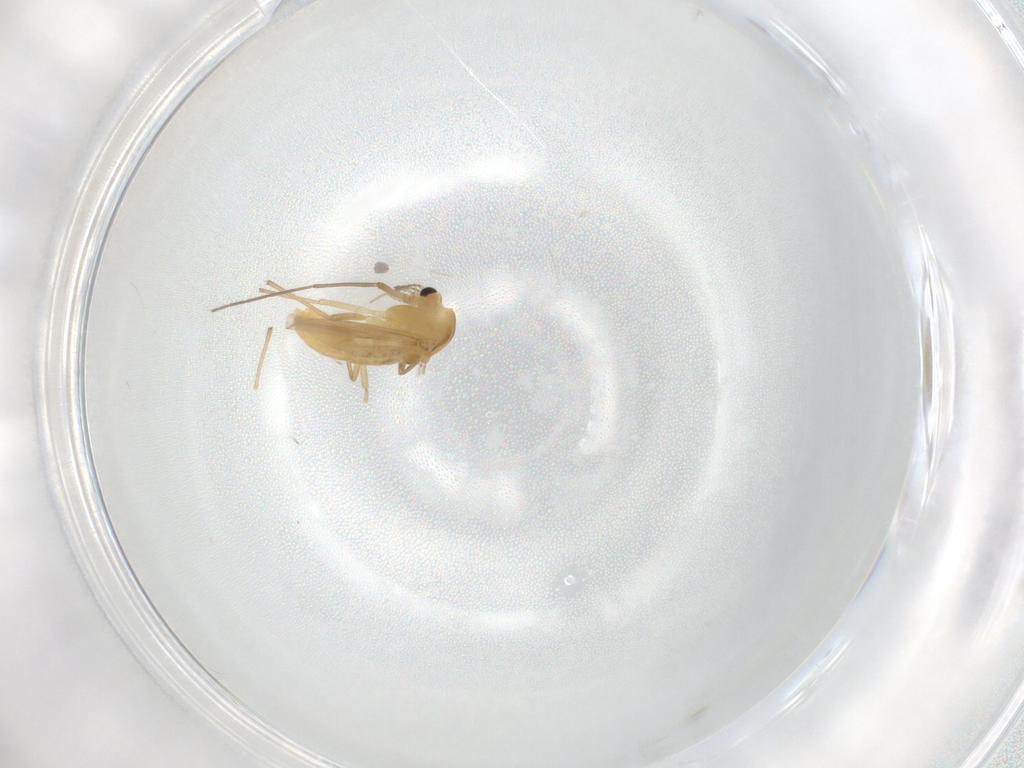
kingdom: Animalia
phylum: Arthropoda
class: Insecta
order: Diptera
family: Chironomidae
